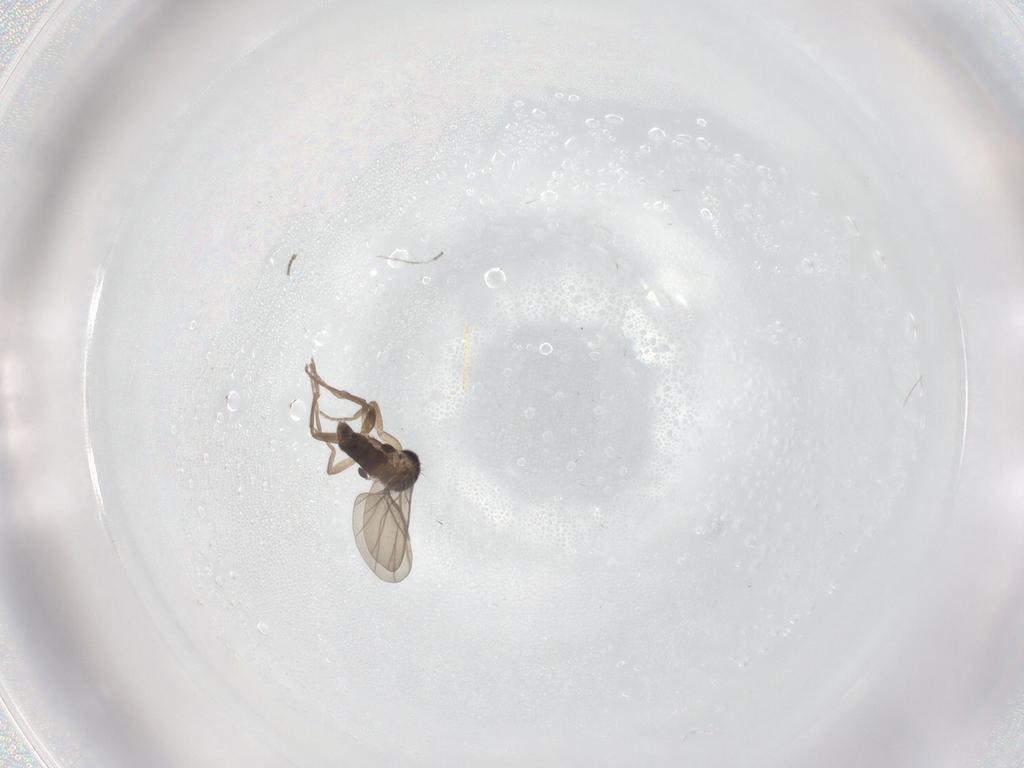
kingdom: Animalia
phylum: Arthropoda
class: Insecta
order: Diptera
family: Cecidomyiidae
